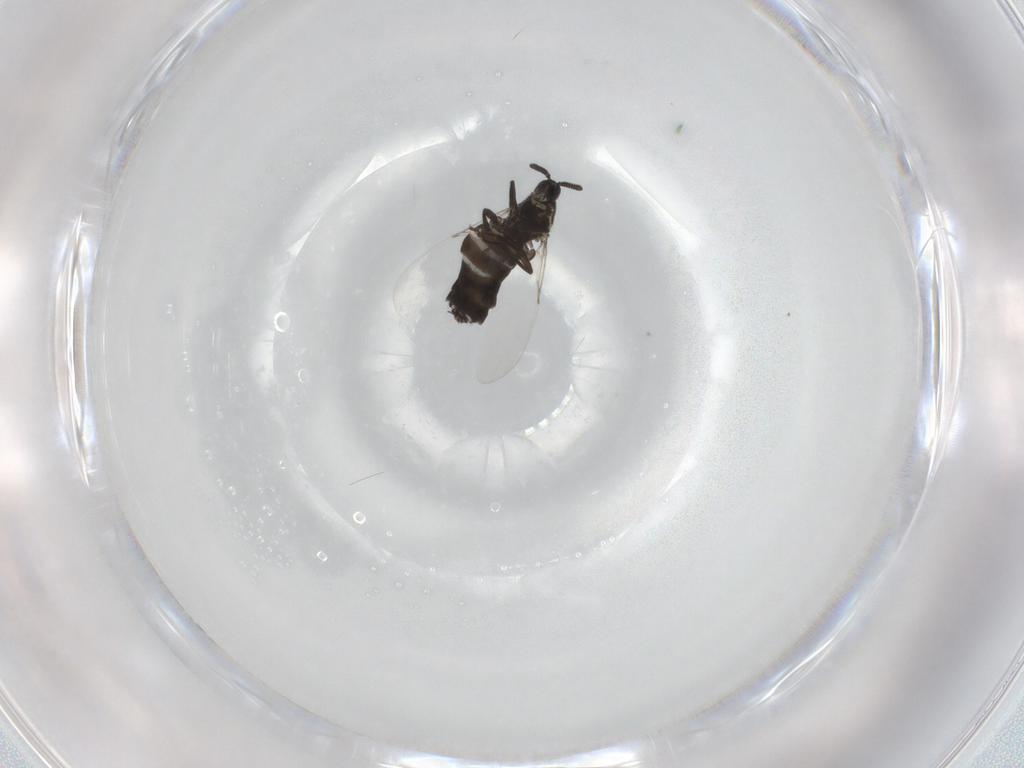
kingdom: Animalia
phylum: Arthropoda
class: Insecta
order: Diptera
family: Scatopsidae
